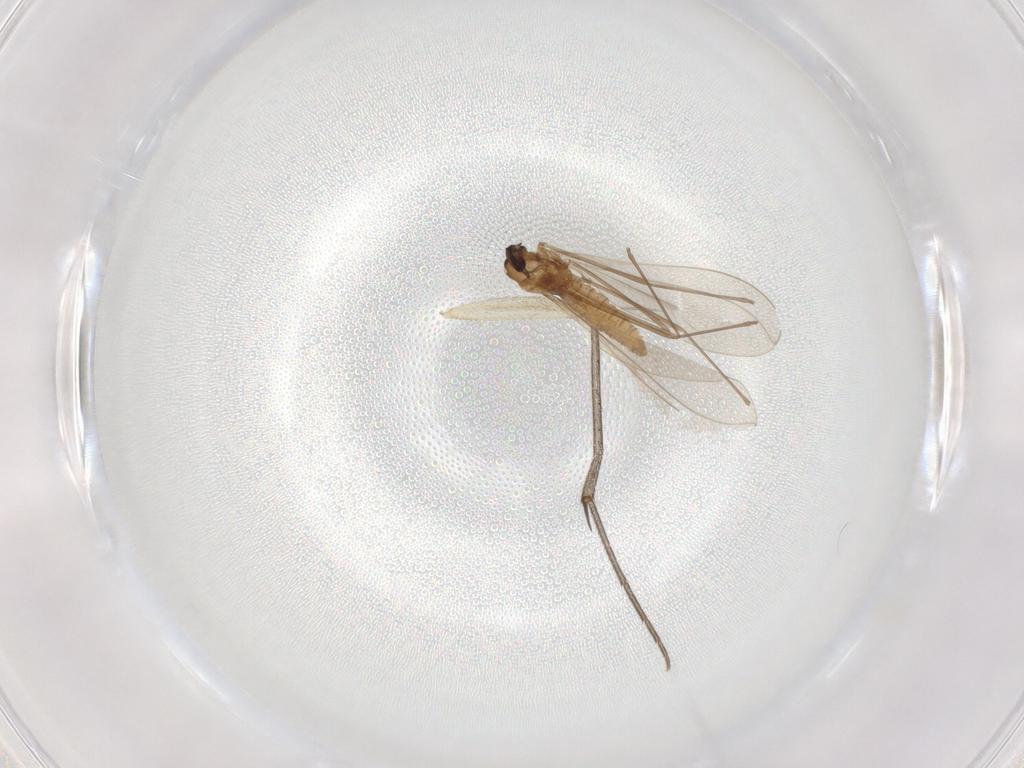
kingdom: Animalia
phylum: Arthropoda
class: Insecta
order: Diptera
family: Cecidomyiidae
